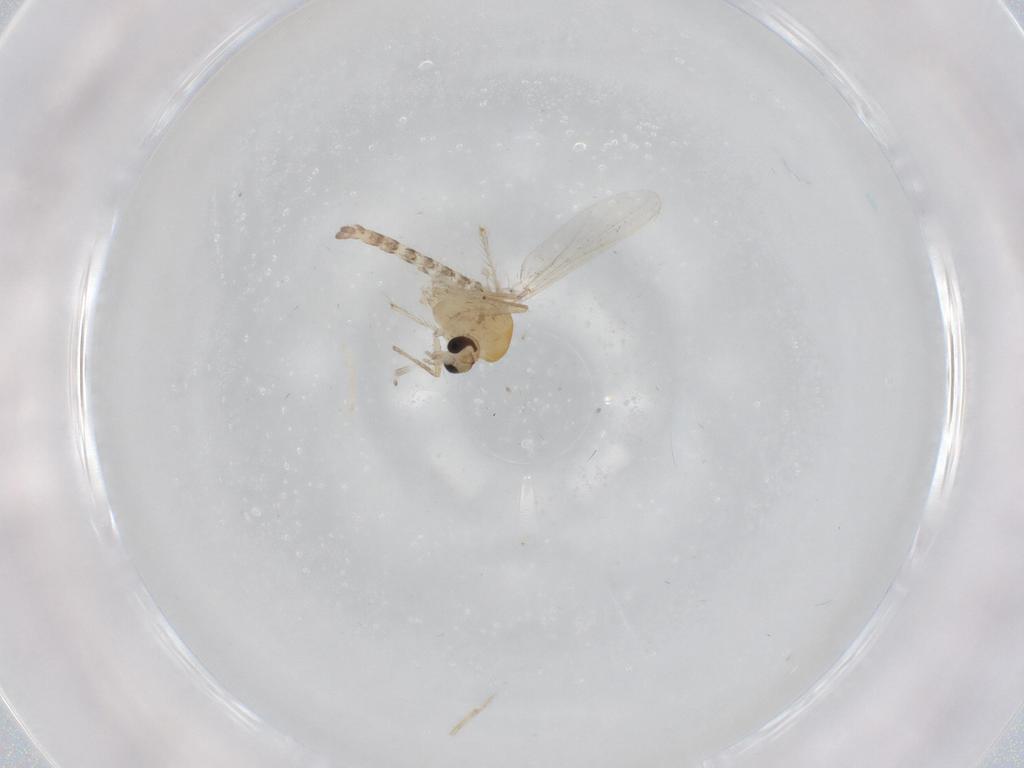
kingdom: Animalia
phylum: Arthropoda
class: Insecta
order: Diptera
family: Chironomidae
